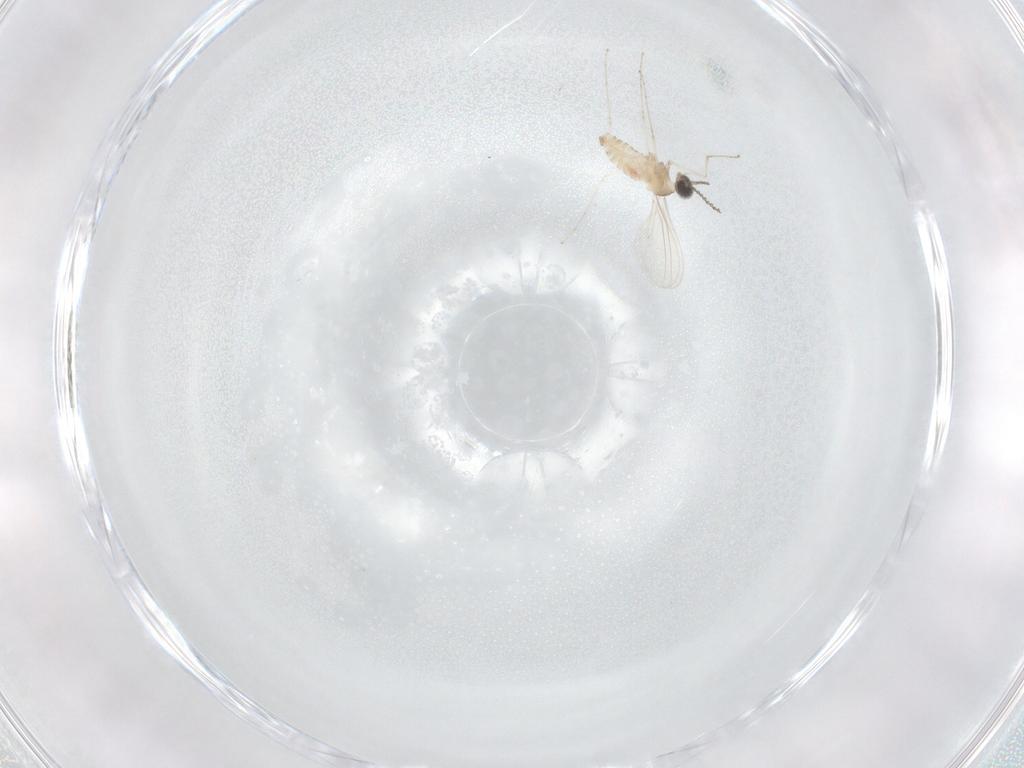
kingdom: Animalia
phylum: Arthropoda
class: Insecta
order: Diptera
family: Cecidomyiidae
